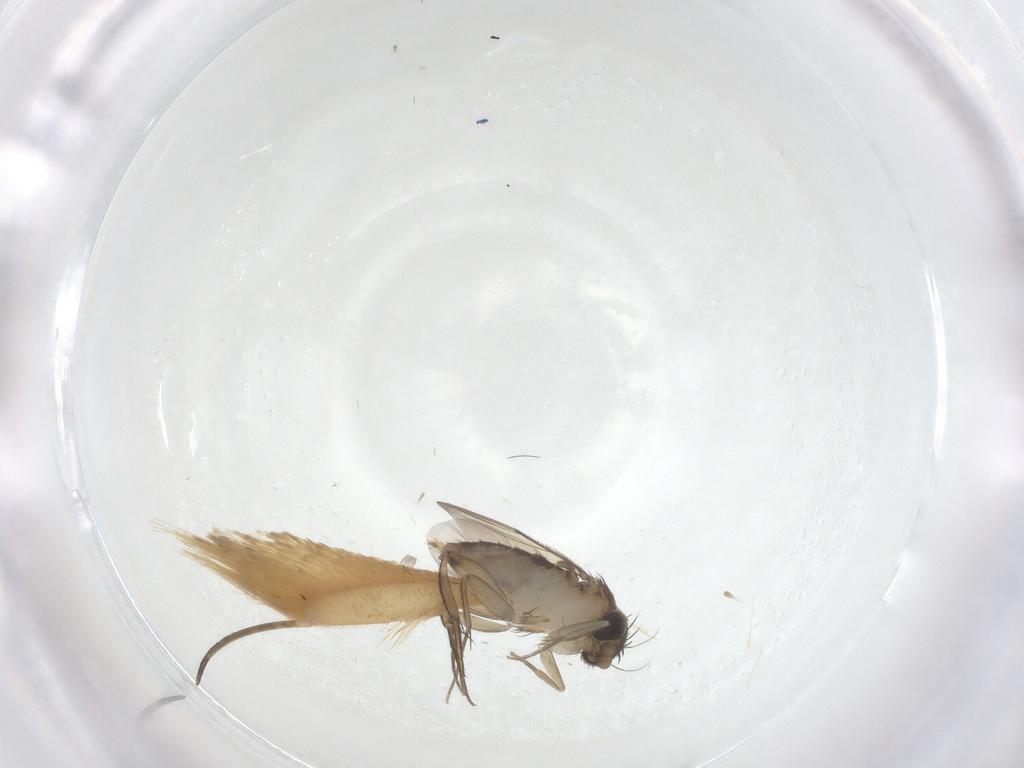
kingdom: Animalia
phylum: Arthropoda
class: Insecta
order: Diptera
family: Phoridae
